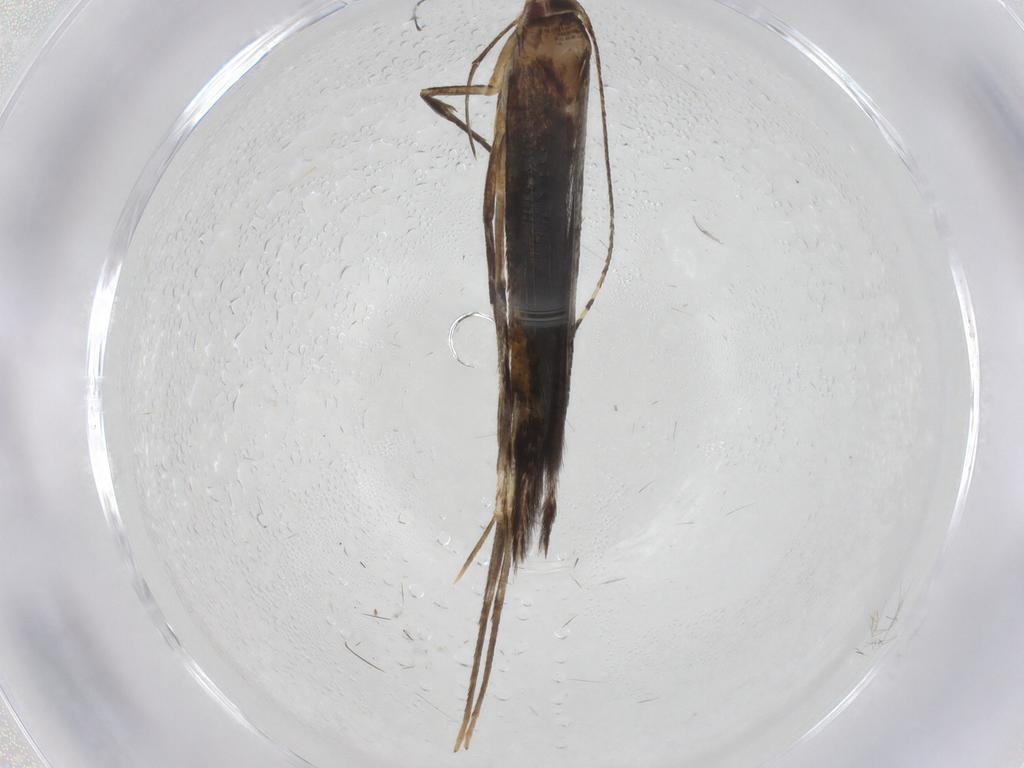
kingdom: Animalia
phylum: Arthropoda
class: Insecta
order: Lepidoptera
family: Cosmopterigidae
